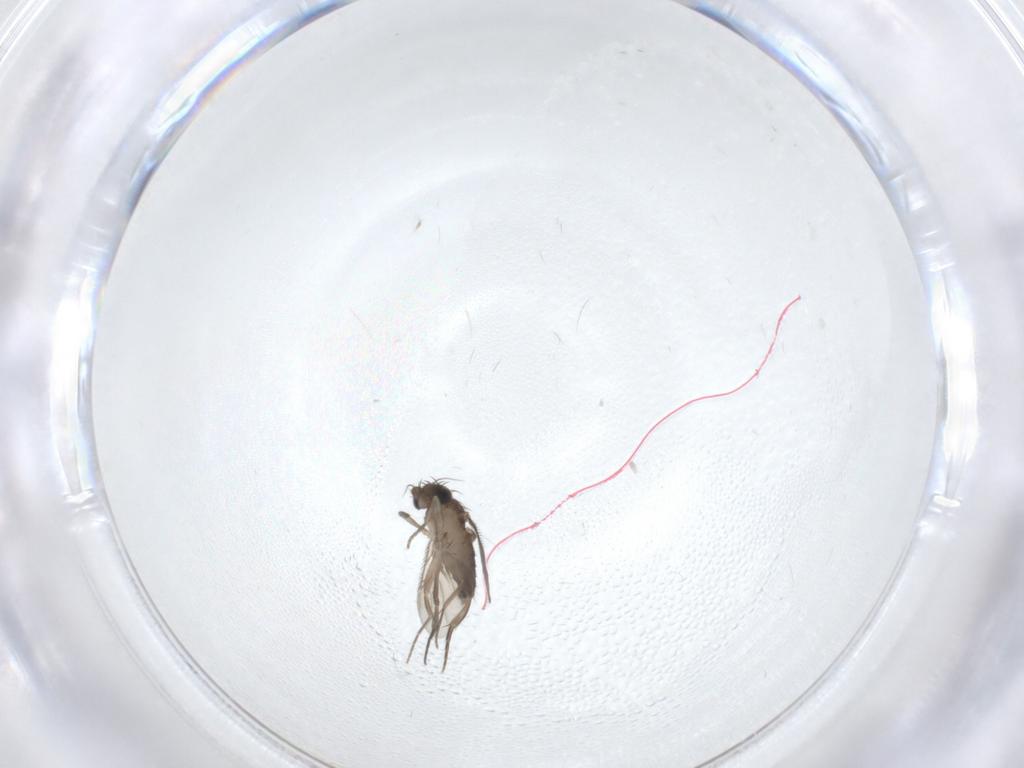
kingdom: Animalia
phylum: Arthropoda
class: Insecta
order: Diptera
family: Phoridae
